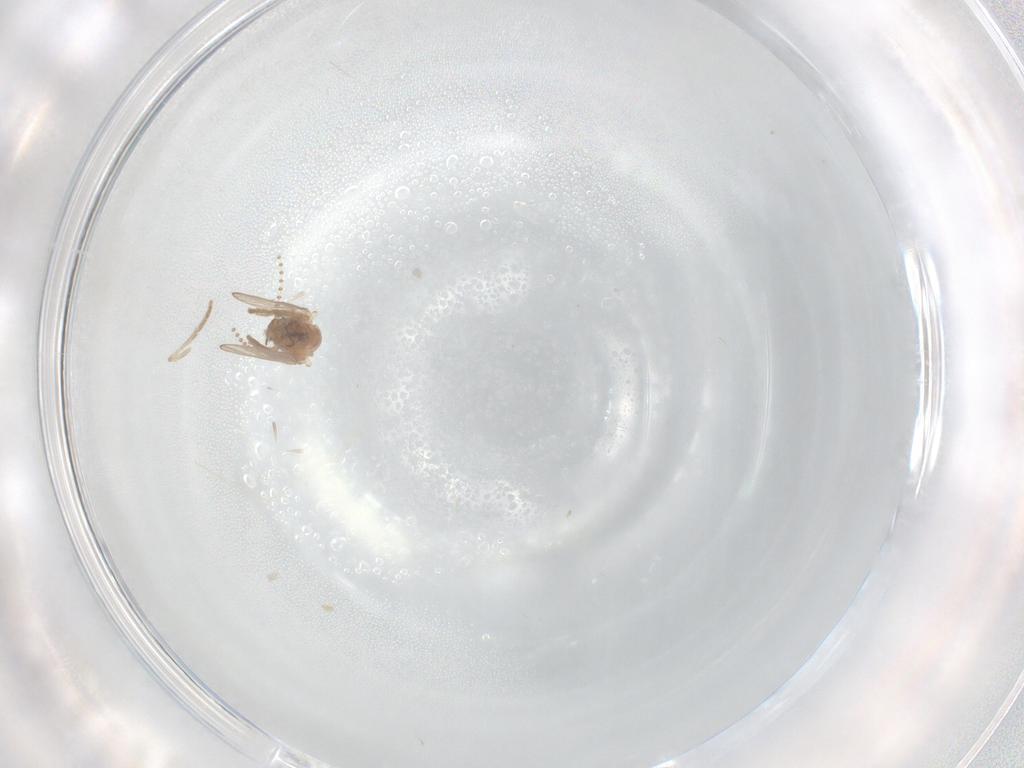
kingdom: Animalia
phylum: Arthropoda
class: Insecta
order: Diptera
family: Psychodidae
